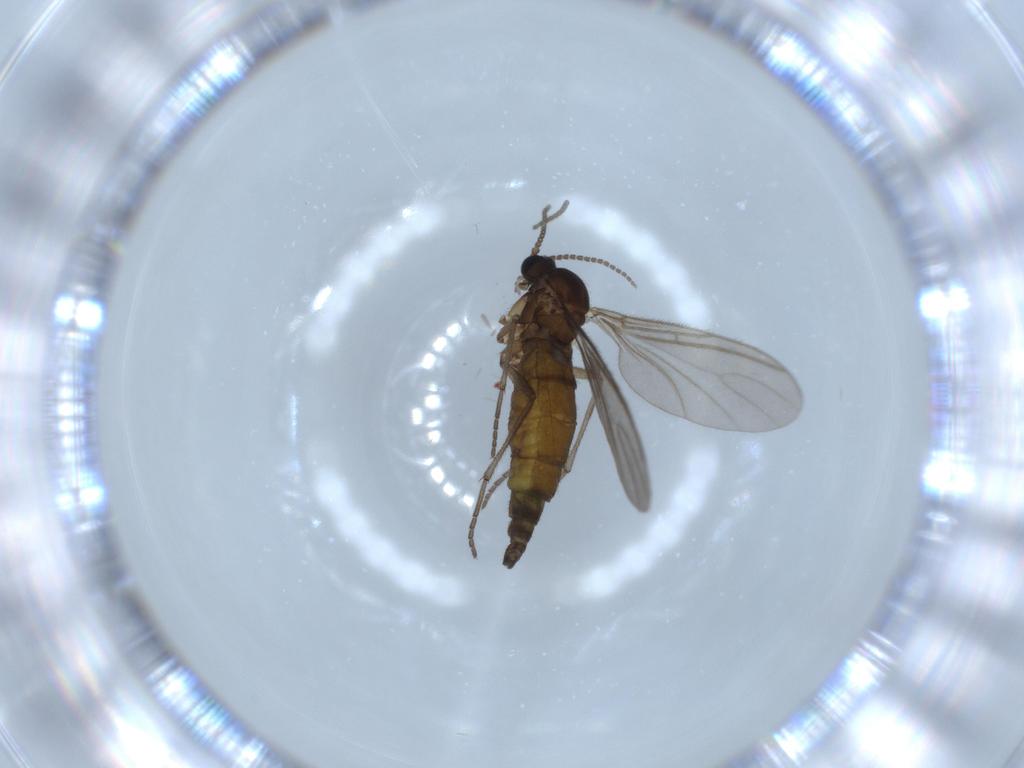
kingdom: Animalia
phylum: Arthropoda
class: Insecta
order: Diptera
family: Sciaridae
